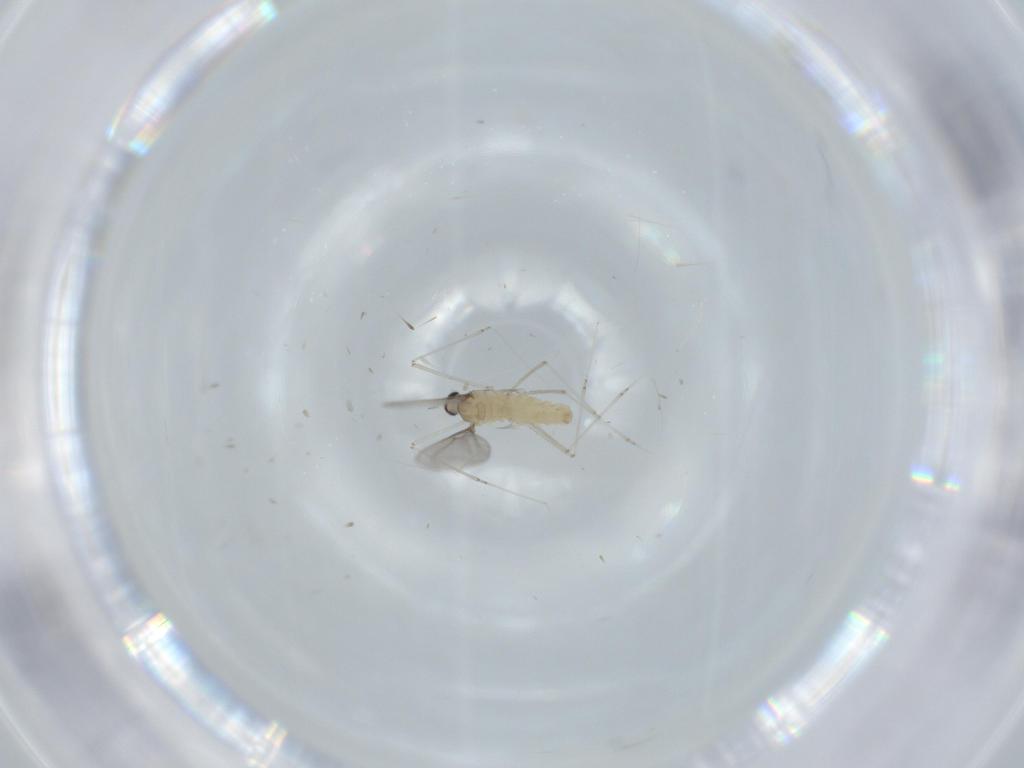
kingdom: Animalia
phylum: Arthropoda
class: Insecta
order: Diptera
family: Cecidomyiidae
